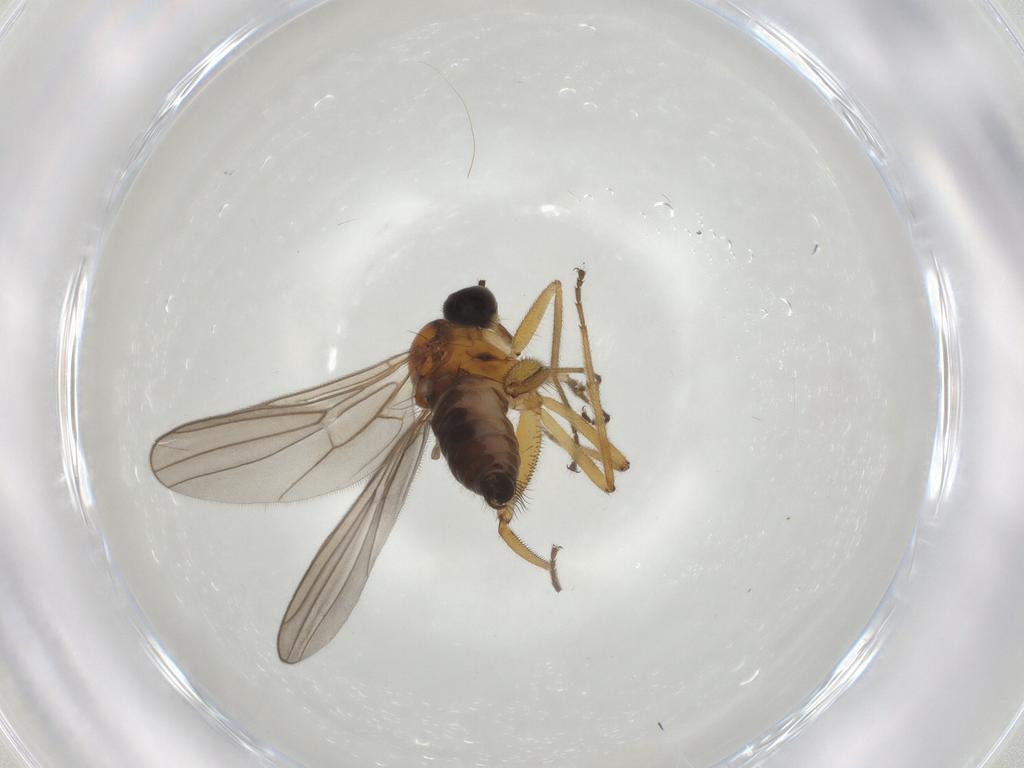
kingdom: Animalia
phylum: Arthropoda
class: Insecta
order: Diptera
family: Hybotidae
